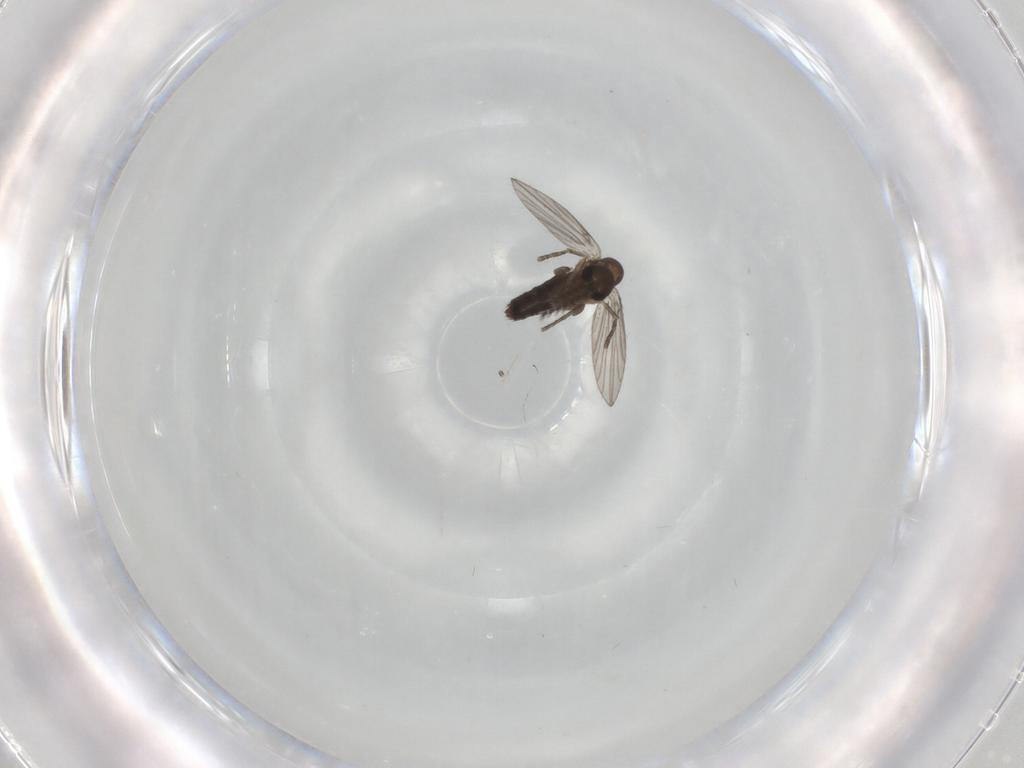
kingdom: Animalia
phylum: Arthropoda
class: Insecta
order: Diptera
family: Psychodidae
